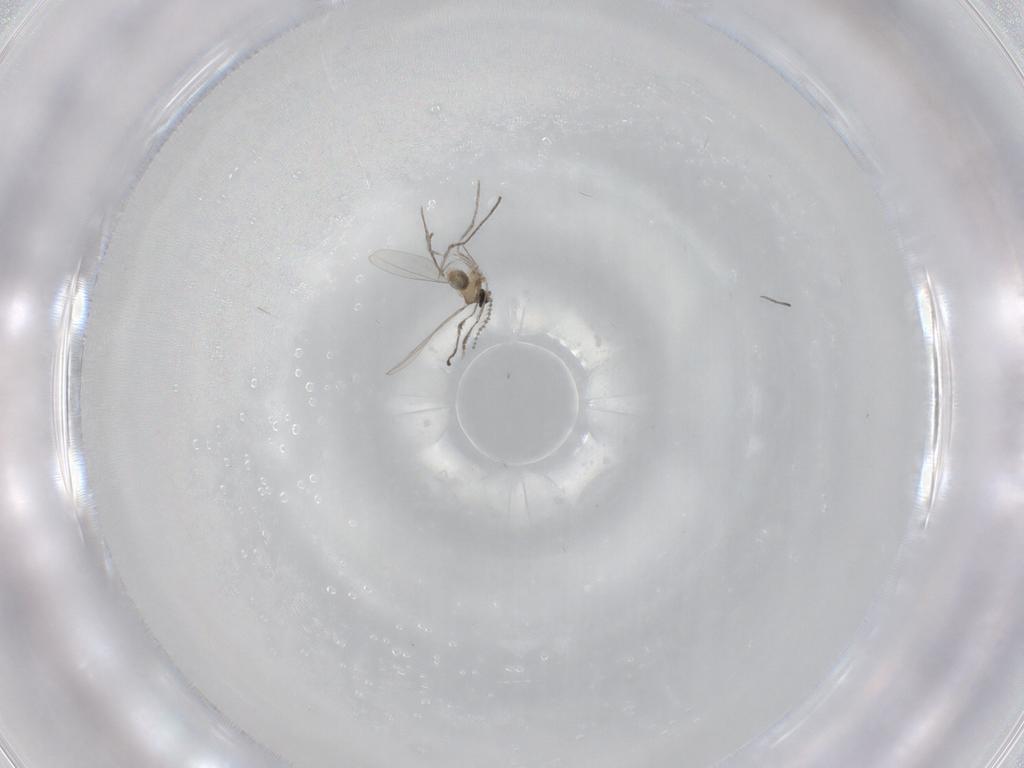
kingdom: Animalia
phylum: Arthropoda
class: Insecta
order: Diptera
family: Cecidomyiidae
